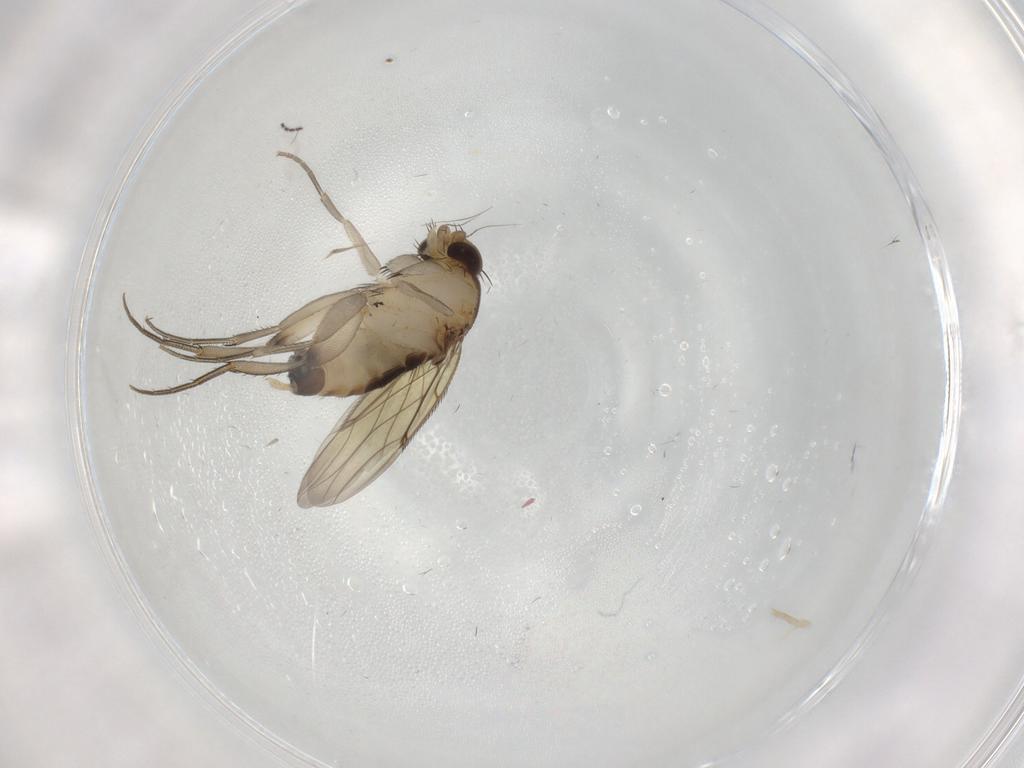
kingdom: Animalia
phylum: Arthropoda
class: Insecta
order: Diptera
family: Phoridae
